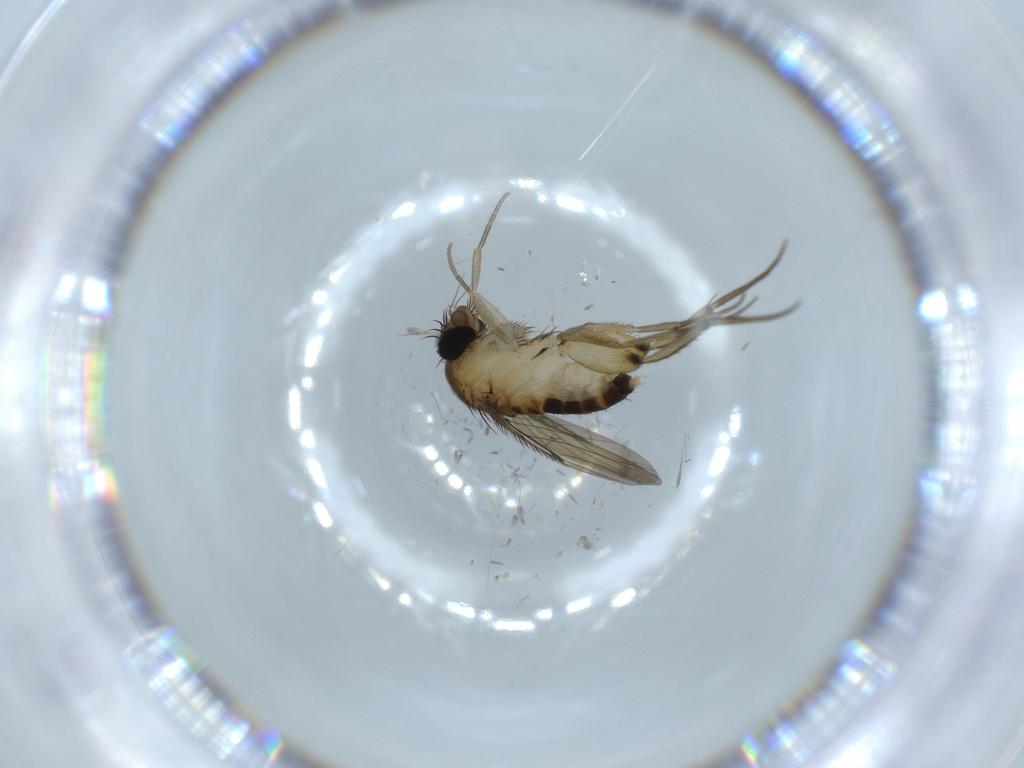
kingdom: Animalia
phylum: Arthropoda
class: Insecta
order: Diptera
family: Phoridae
